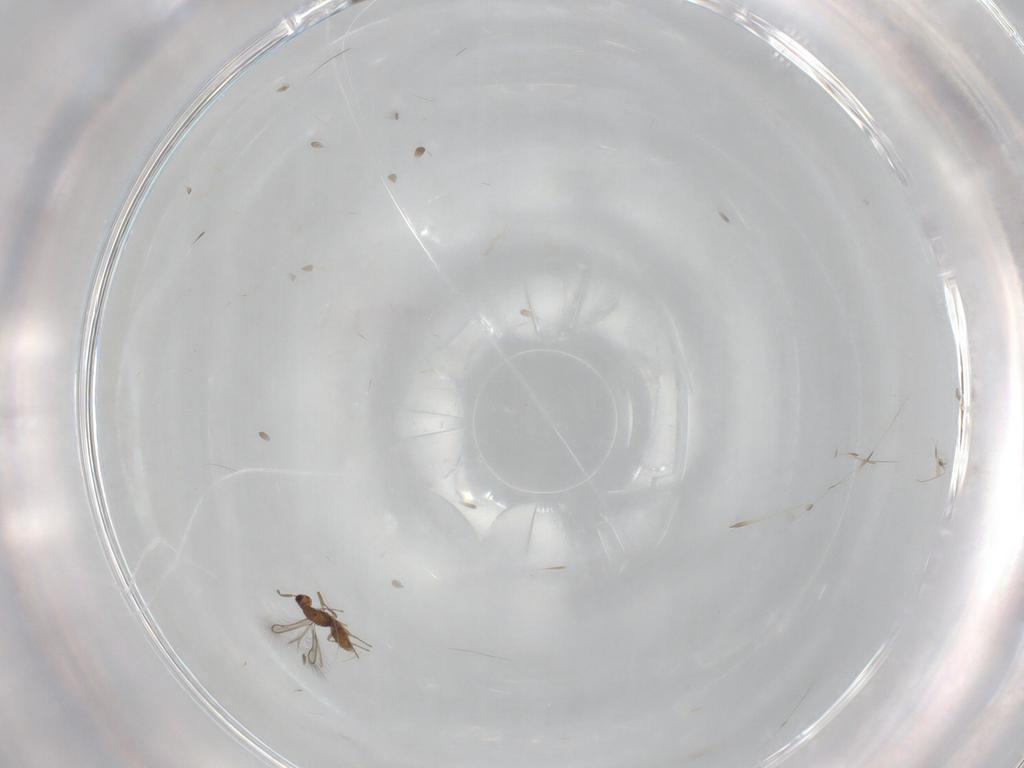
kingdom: Animalia
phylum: Arthropoda
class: Insecta
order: Hymenoptera
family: Mymaridae
